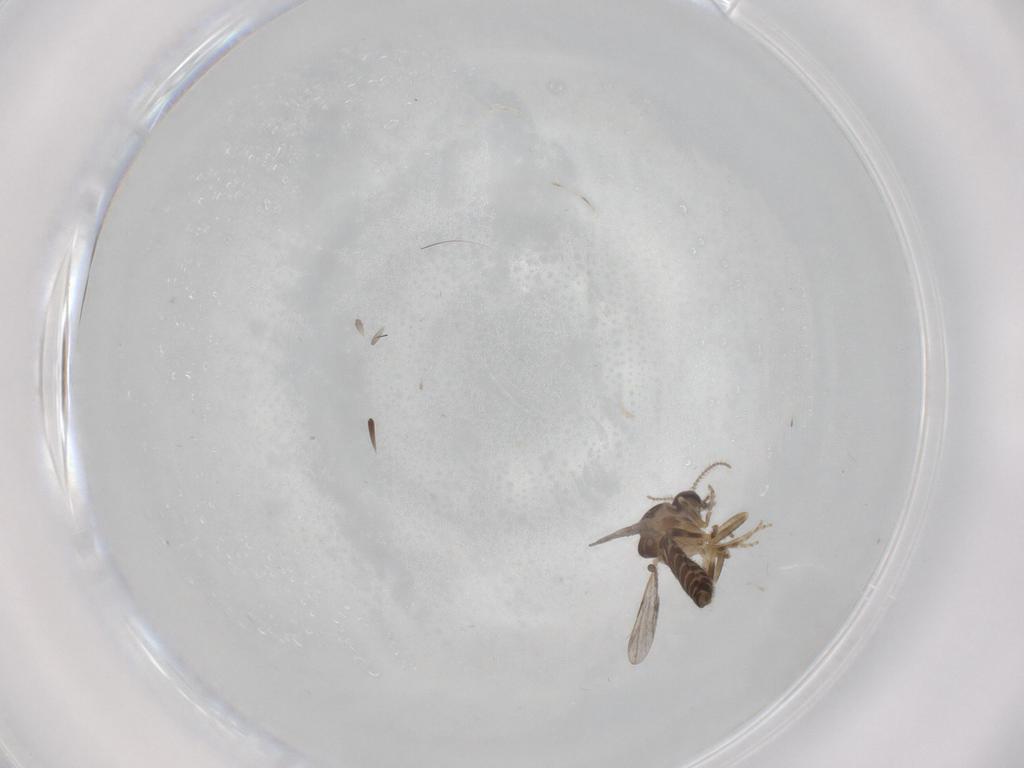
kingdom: Animalia
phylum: Arthropoda
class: Insecta
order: Diptera
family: Ceratopogonidae
